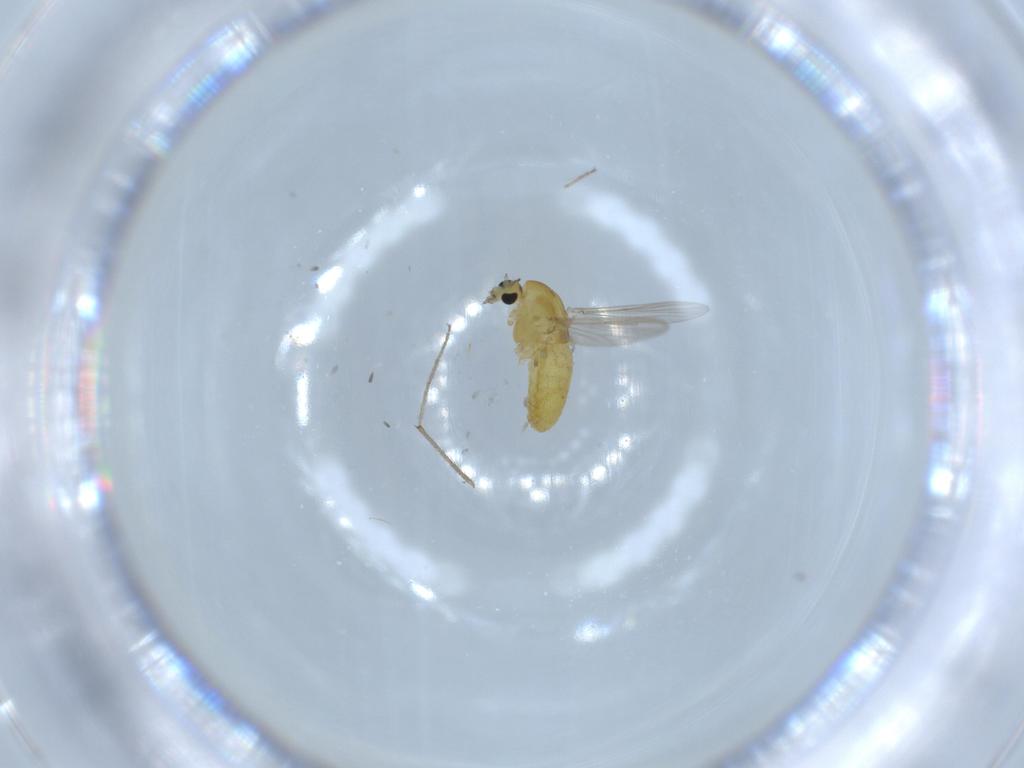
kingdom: Animalia
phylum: Arthropoda
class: Insecta
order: Diptera
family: Chironomidae
